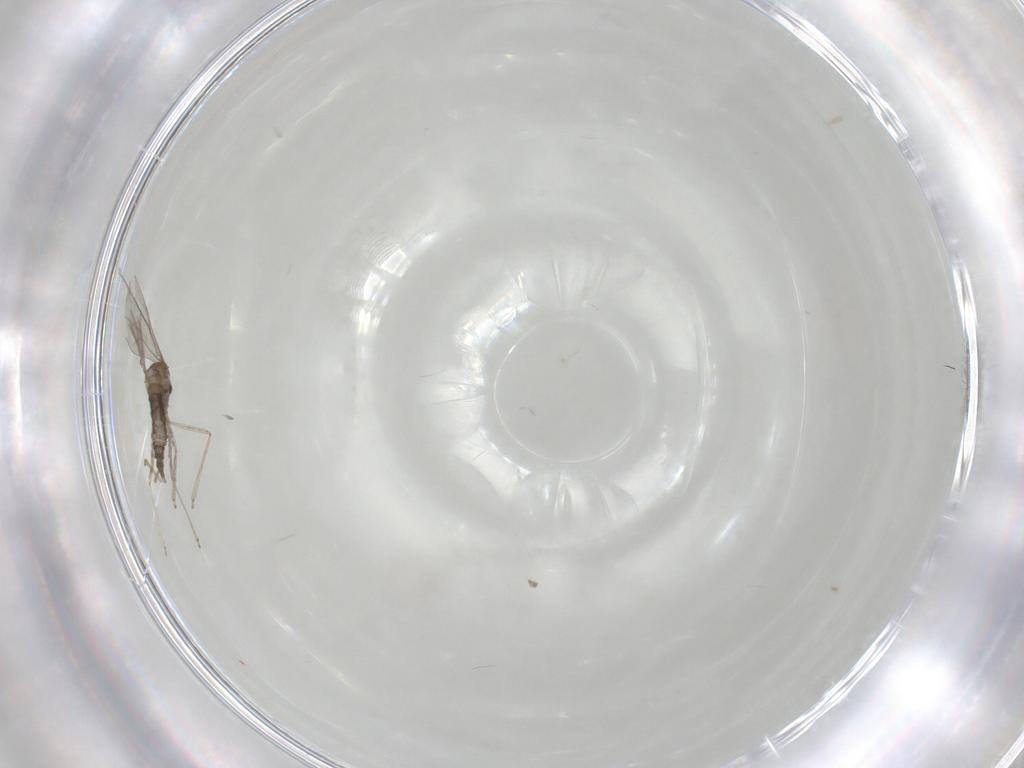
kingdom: Animalia
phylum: Arthropoda
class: Insecta
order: Diptera
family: Cecidomyiidae
